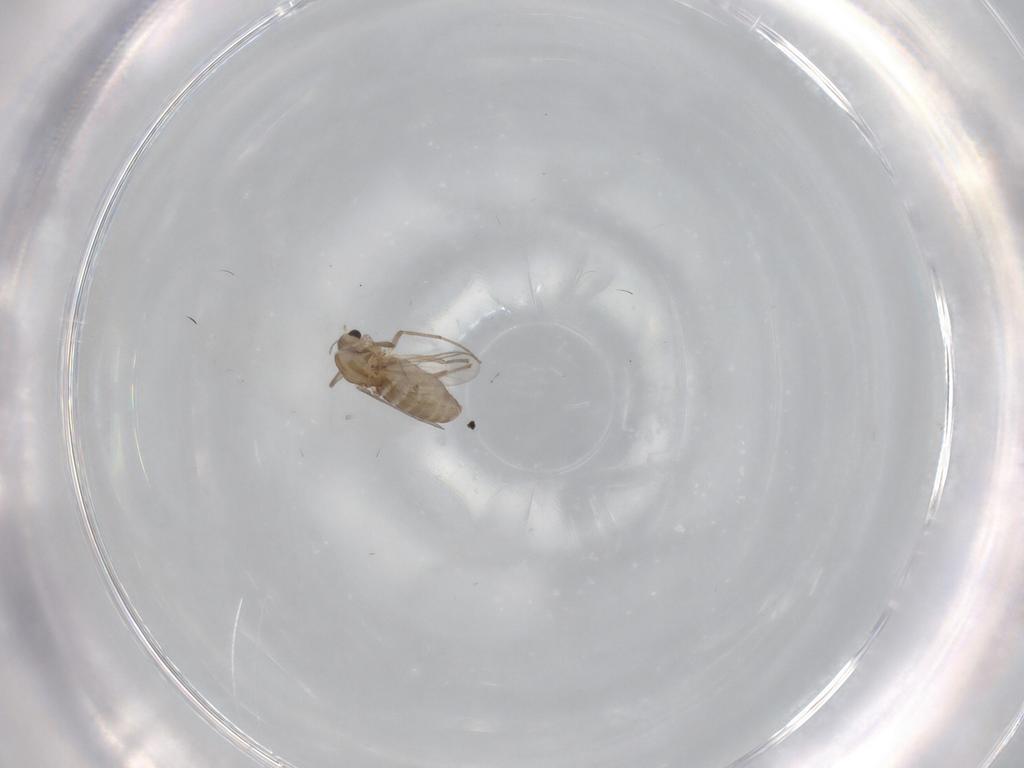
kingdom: Animalia
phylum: Arthropoda
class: Insecta
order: Diptera
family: Chironomidae
